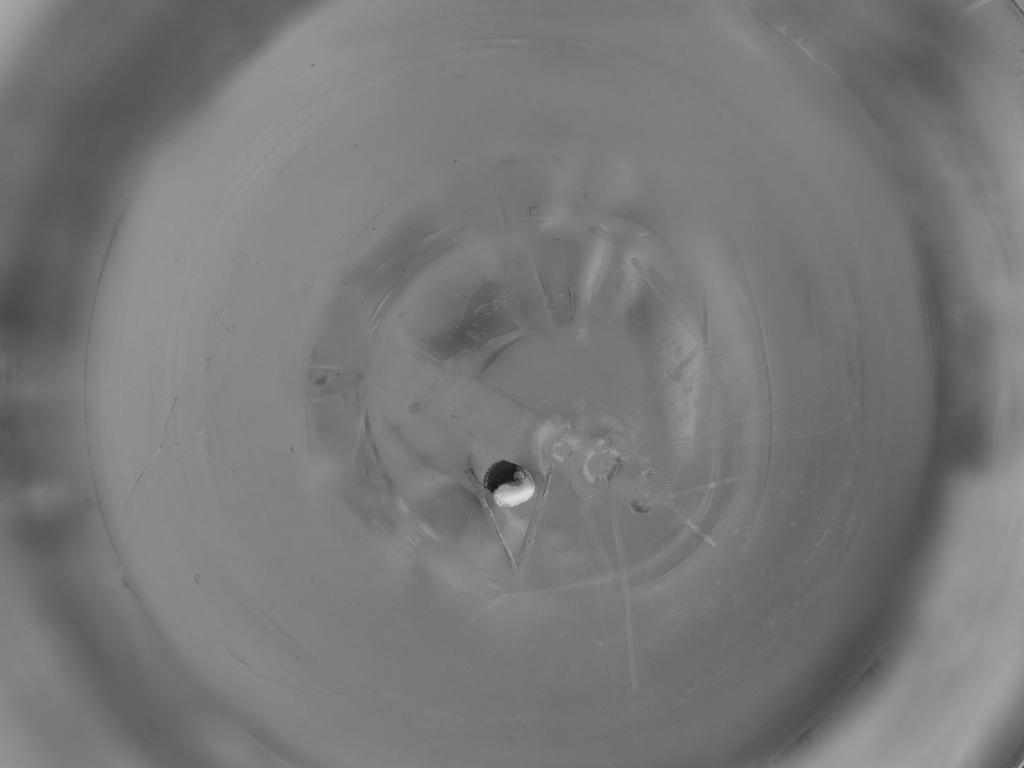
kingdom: Animalia
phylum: Arthropoda
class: Insecta
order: Diptera
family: Cecidomyiidae
